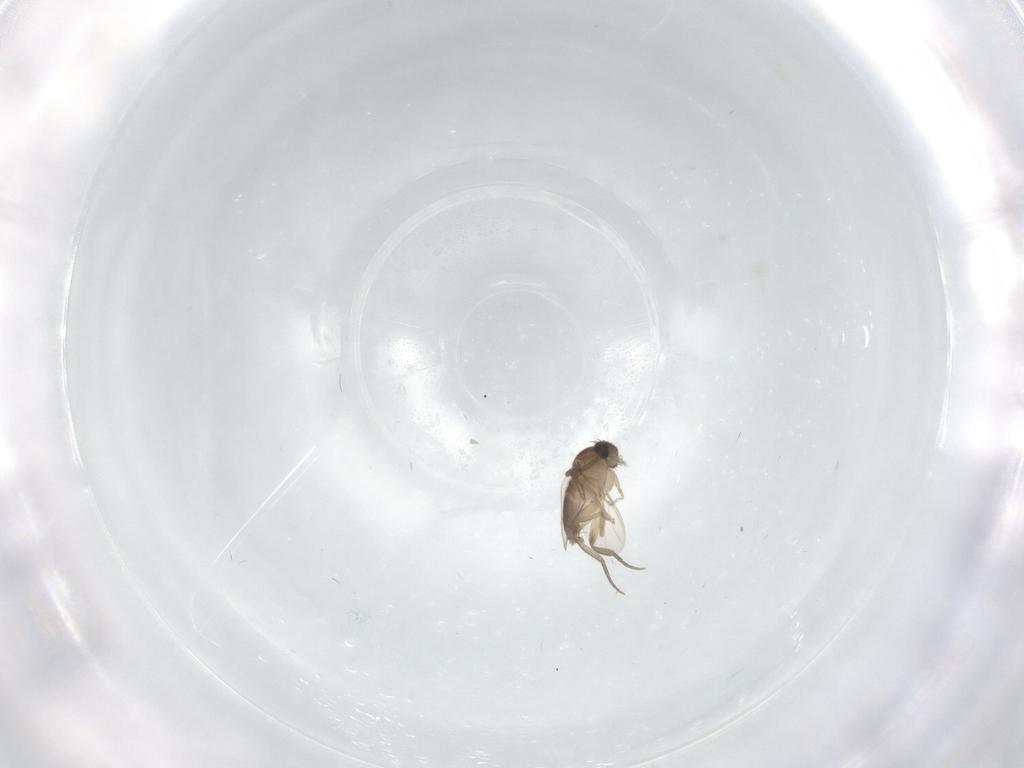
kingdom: Animalia
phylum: Arthropoda
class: Insecta
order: Diptera
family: Phoridae
